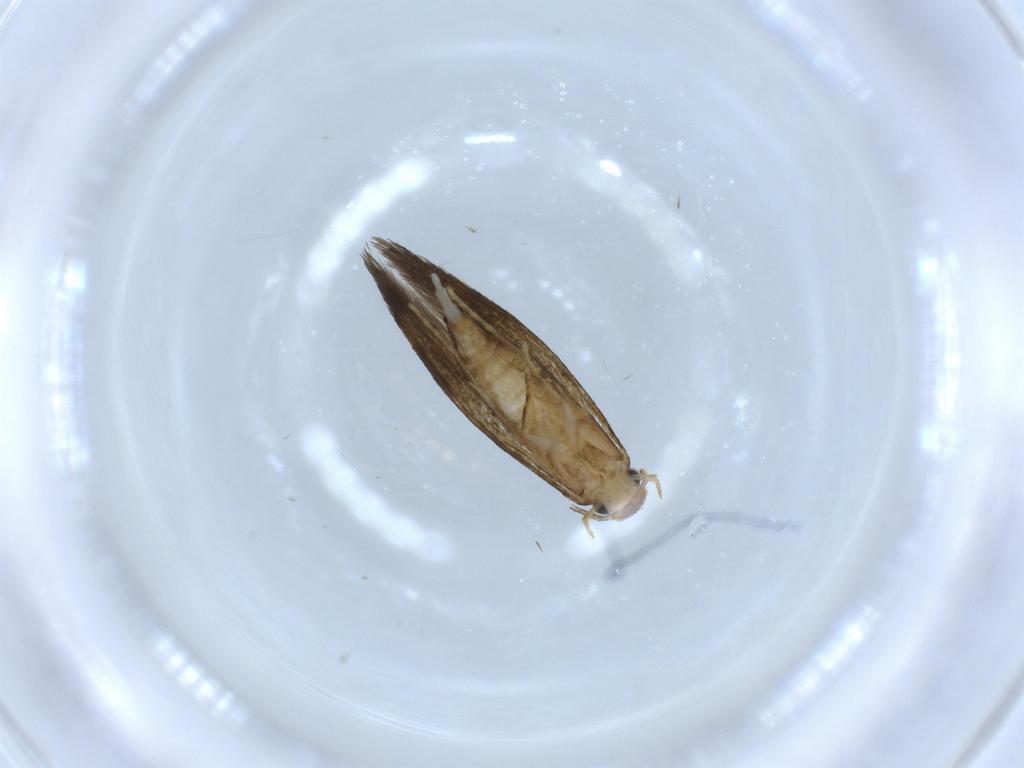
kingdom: Animalia
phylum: Arthropoda
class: Insecta
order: Lepidoptera
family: Tineidae
